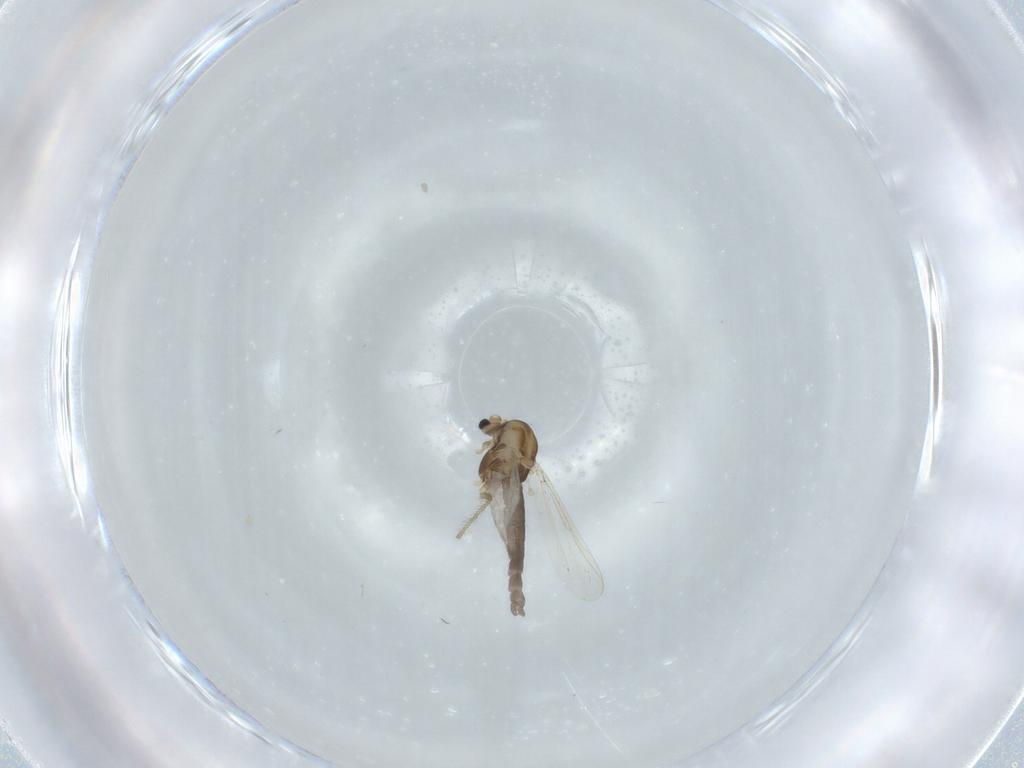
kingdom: Animalia
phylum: Arthropoda
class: Insecta
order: Diptera
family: Chironomidae
